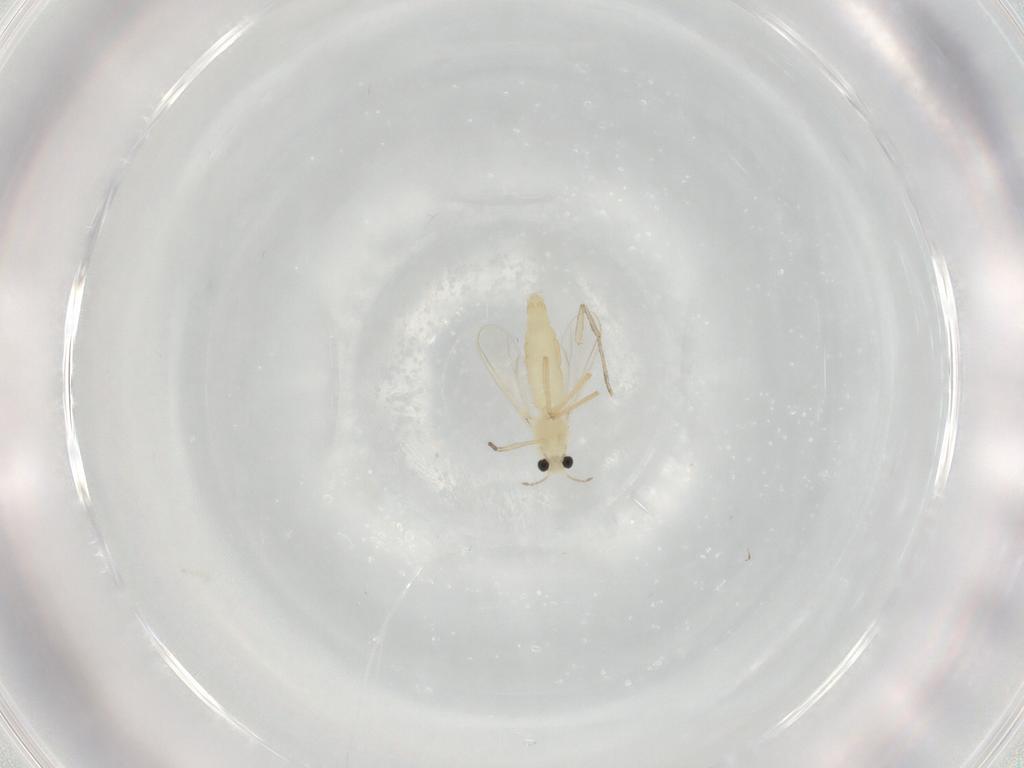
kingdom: Animalia
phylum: Arthropoda
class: Insecta
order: Diptera
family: Chironomidae
